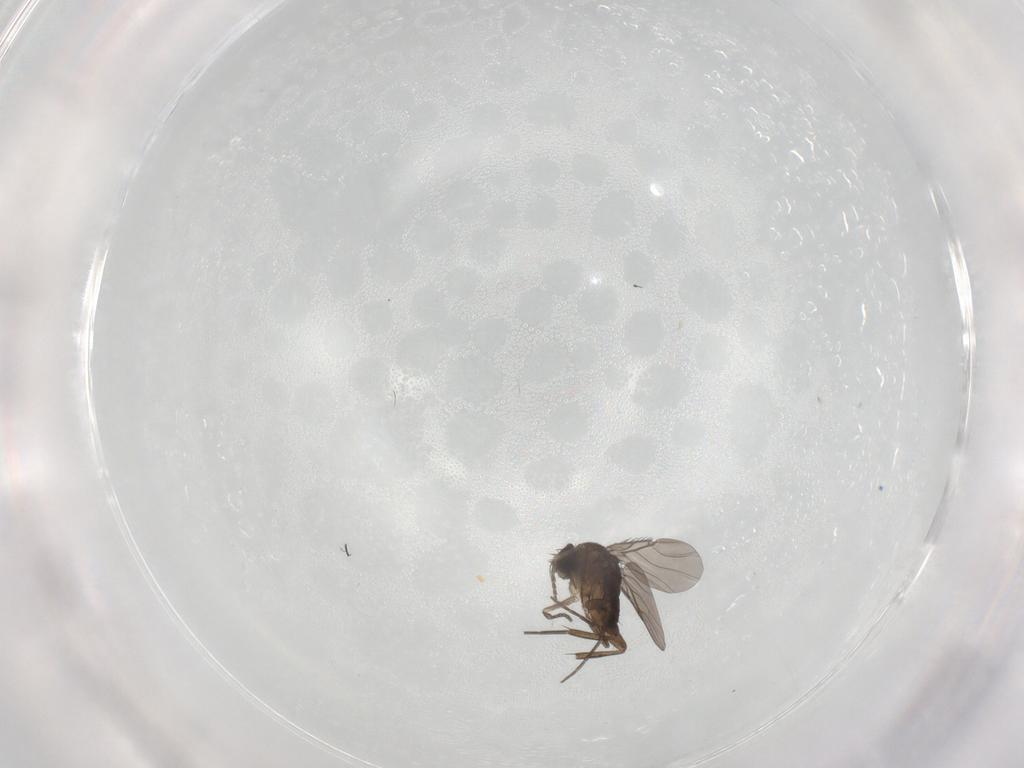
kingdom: Animalia
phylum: Arthropoda
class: Insecta
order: Diptera
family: Phoridae
